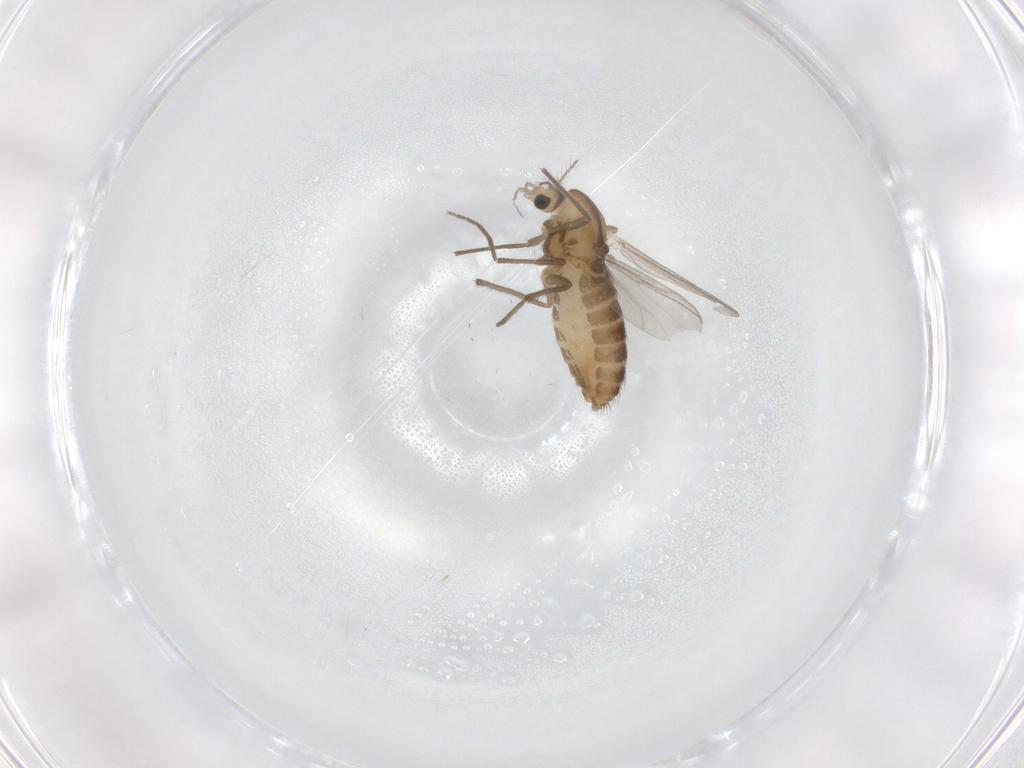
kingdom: Animalia
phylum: Arthropoda
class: Insecta
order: Diptera
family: Chironomidae
